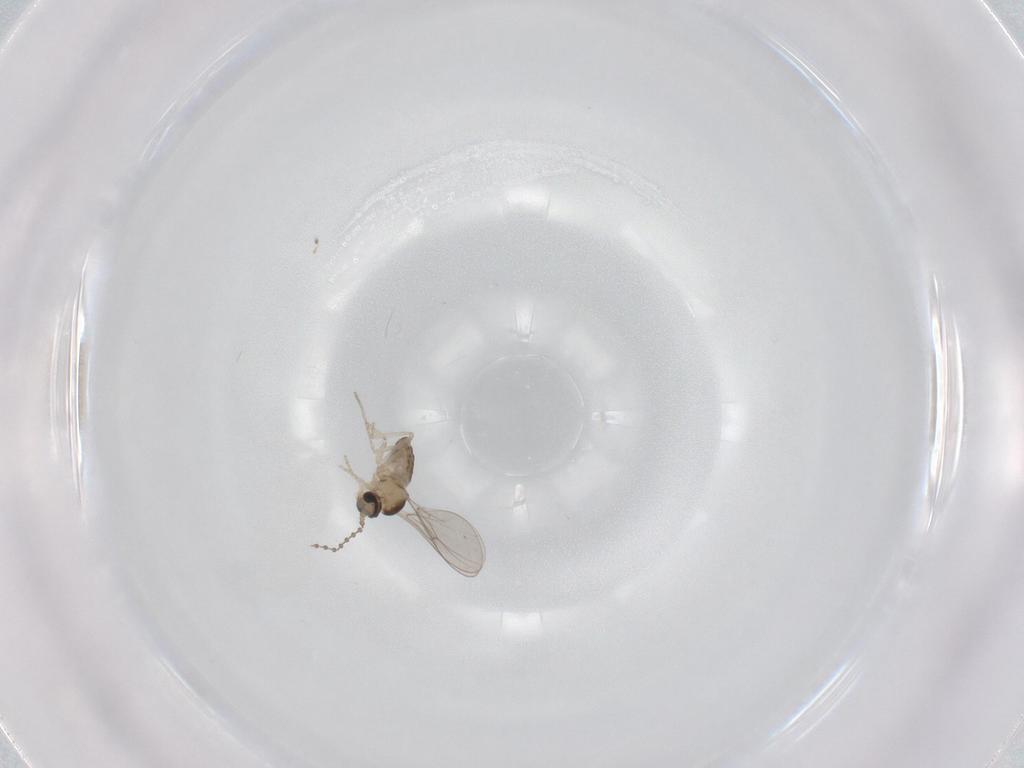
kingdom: Animalia
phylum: Arthropoda
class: Insecta
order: Diptera
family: Cecidomyiidae
